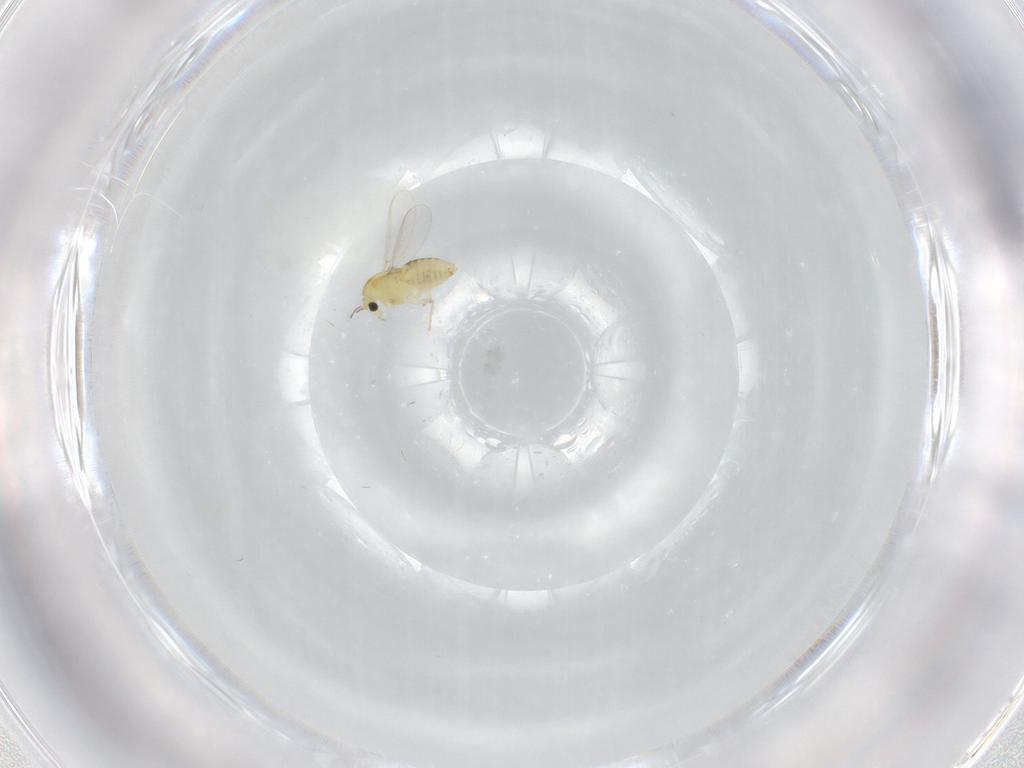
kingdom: Animalia
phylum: Arthropoda
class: Insecta
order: Diptera
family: Chironomidae
